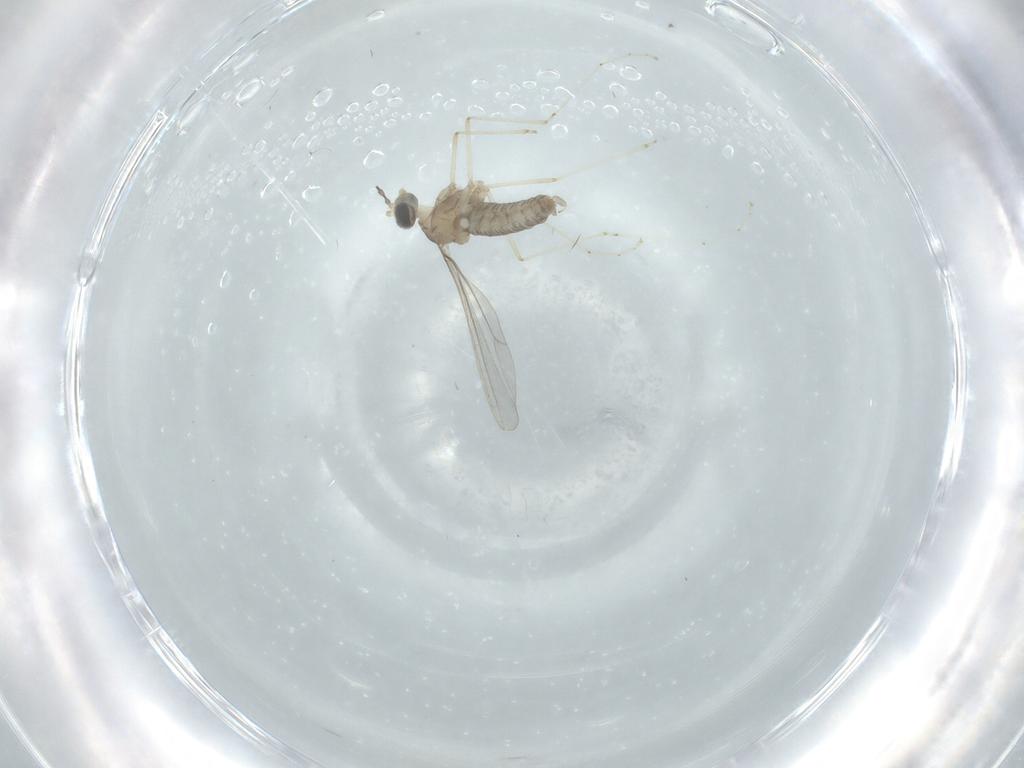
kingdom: Animalia
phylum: Arthropoda
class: Insecta
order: Diptera
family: Cecidomyiidae
